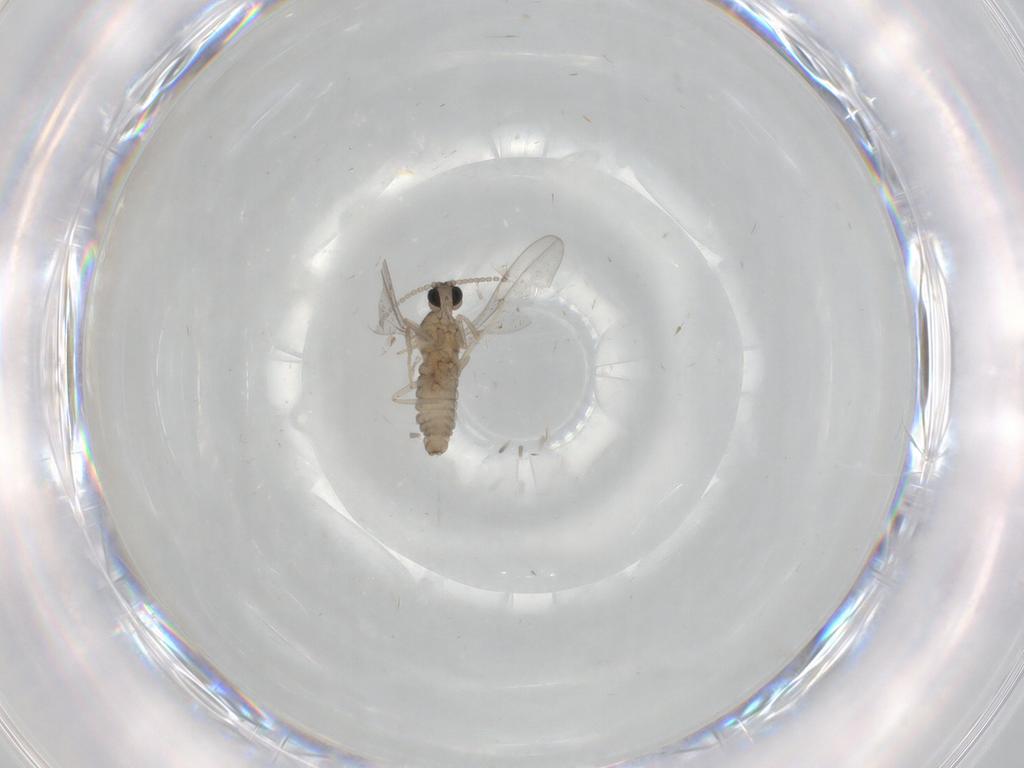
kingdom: Animalia
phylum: Arthropoda
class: Insecta
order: Diptera
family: Cecidomyiidae
